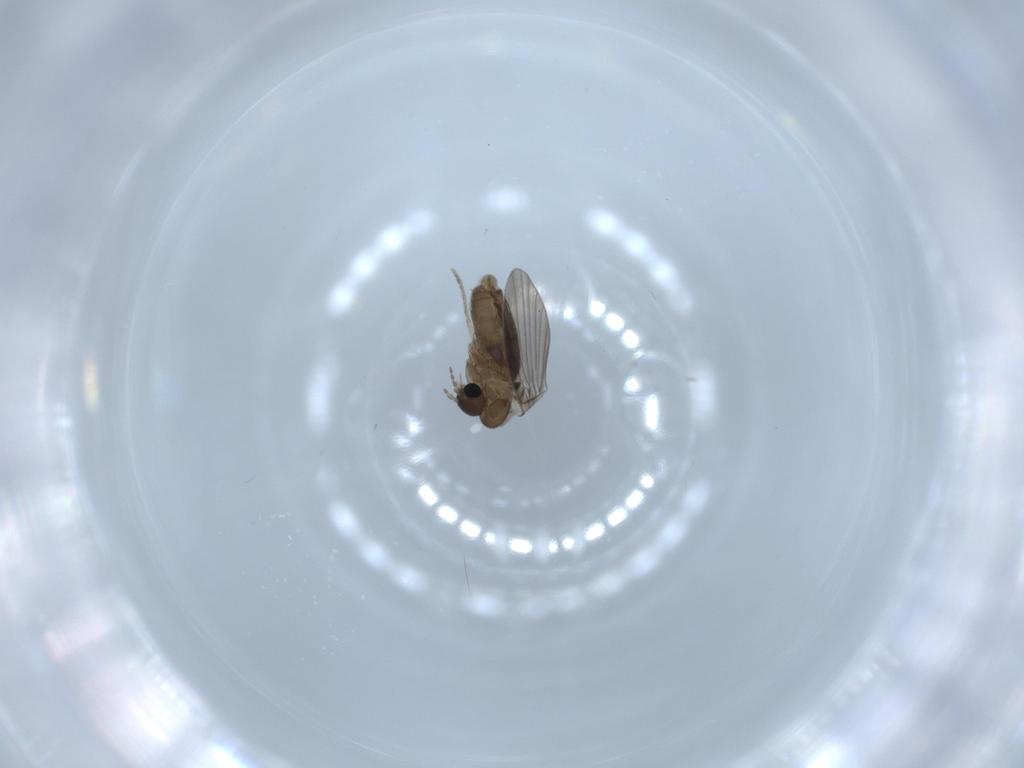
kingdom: Animalia
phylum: Arthropoda
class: Insecta
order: Diptera
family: Psychodidae
